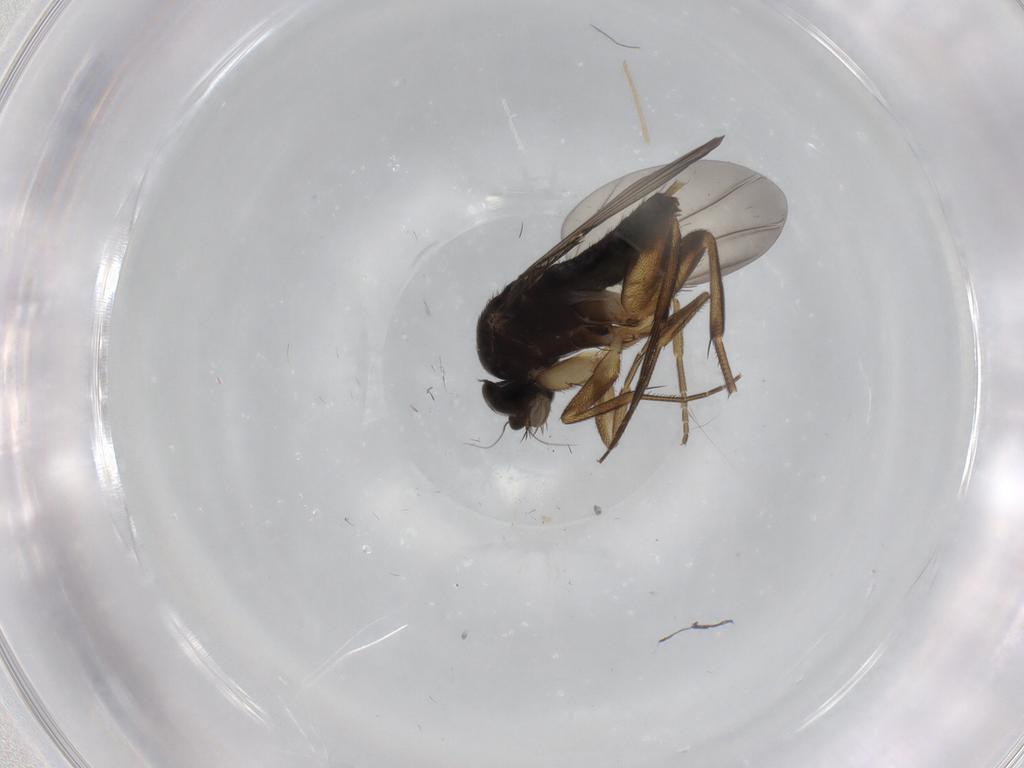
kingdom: Animalia
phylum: Arthropoda
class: Insecta
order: Diptera
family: Phoridae
